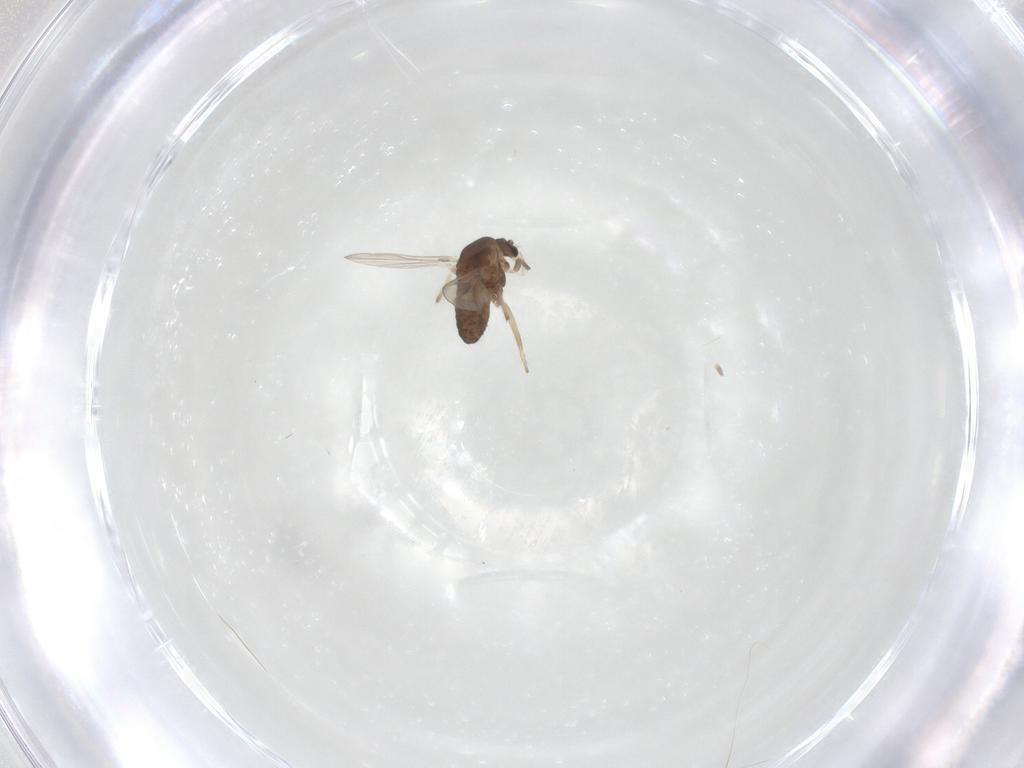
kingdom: Animalia
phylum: Arthropoda
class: Insecta
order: Diptera
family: Chironomidae
